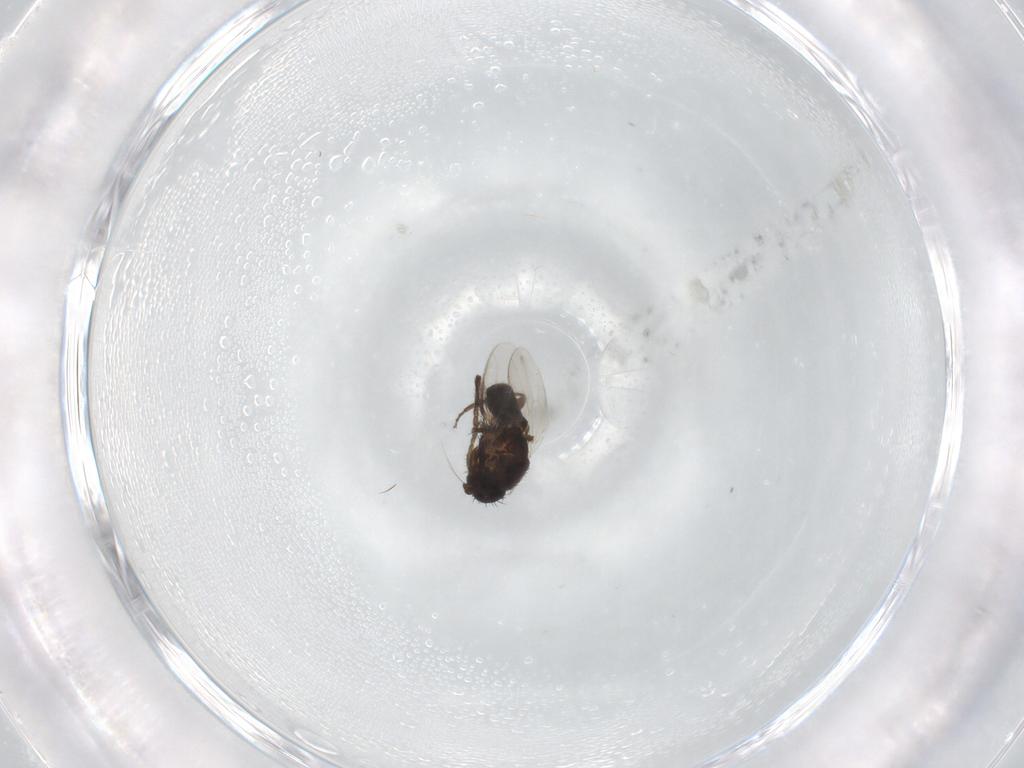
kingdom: Animalia
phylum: Arthropoda
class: Insecta
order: Diptera
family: Sphaeroceridae
